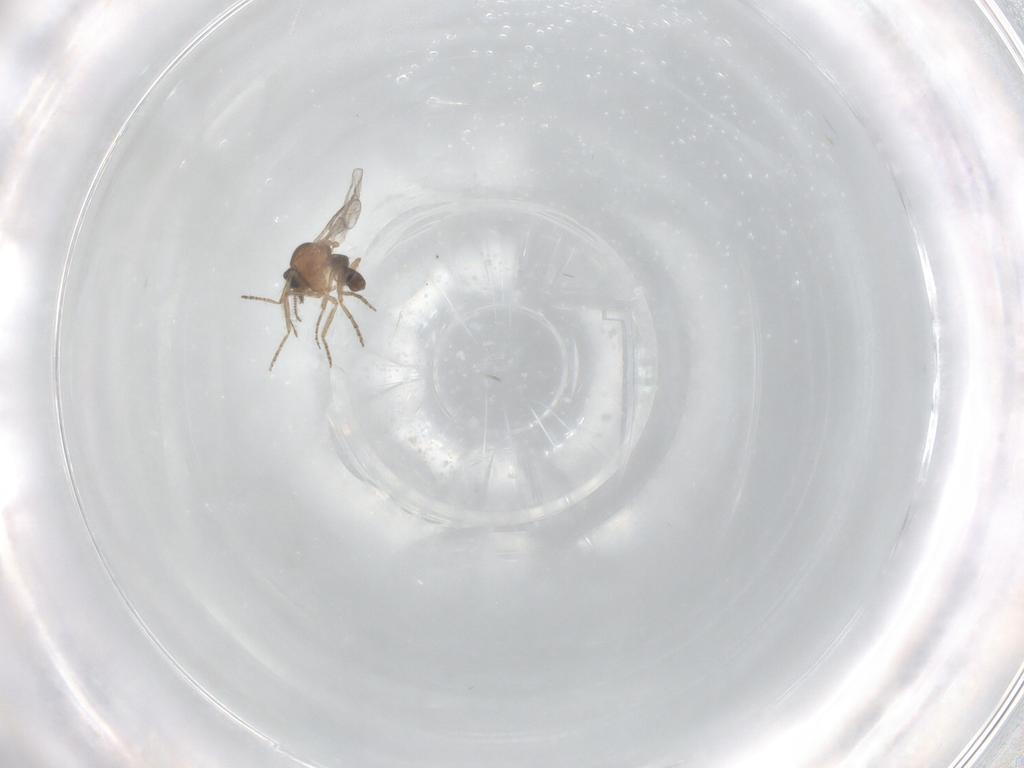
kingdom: Animalia
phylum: Arthropoda
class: Insecta
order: Diptera
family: Ceratopogonidae
